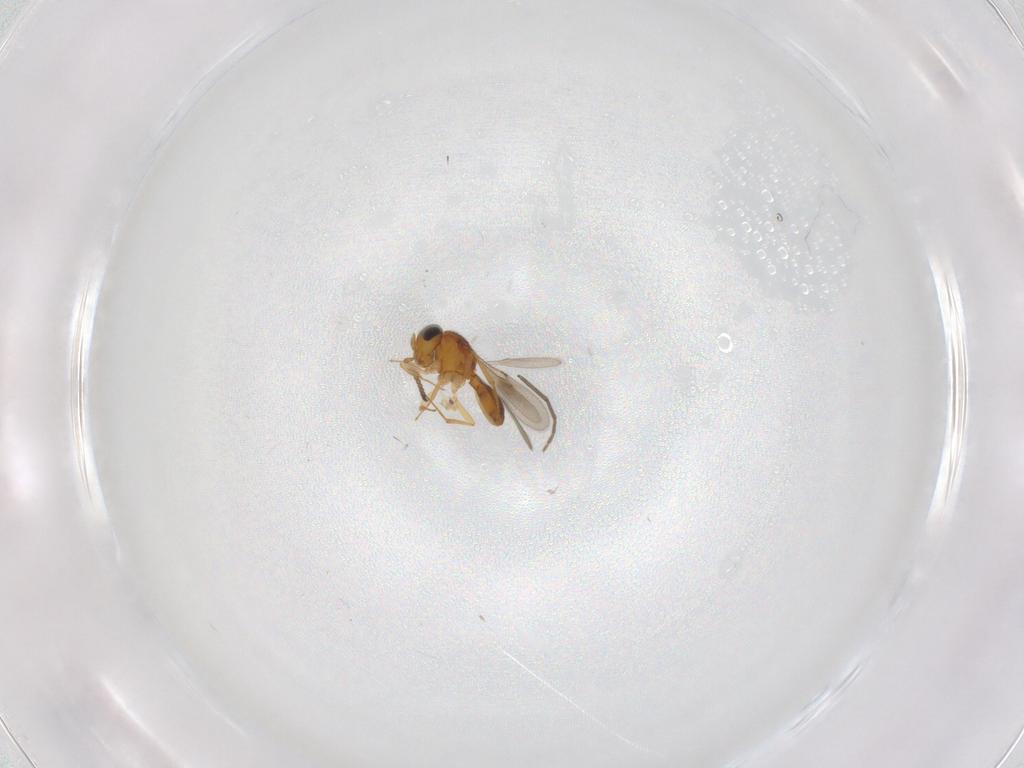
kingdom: Animalia
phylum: Arthropoda
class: Insecta
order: Hymenoptera
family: Scelionidae
